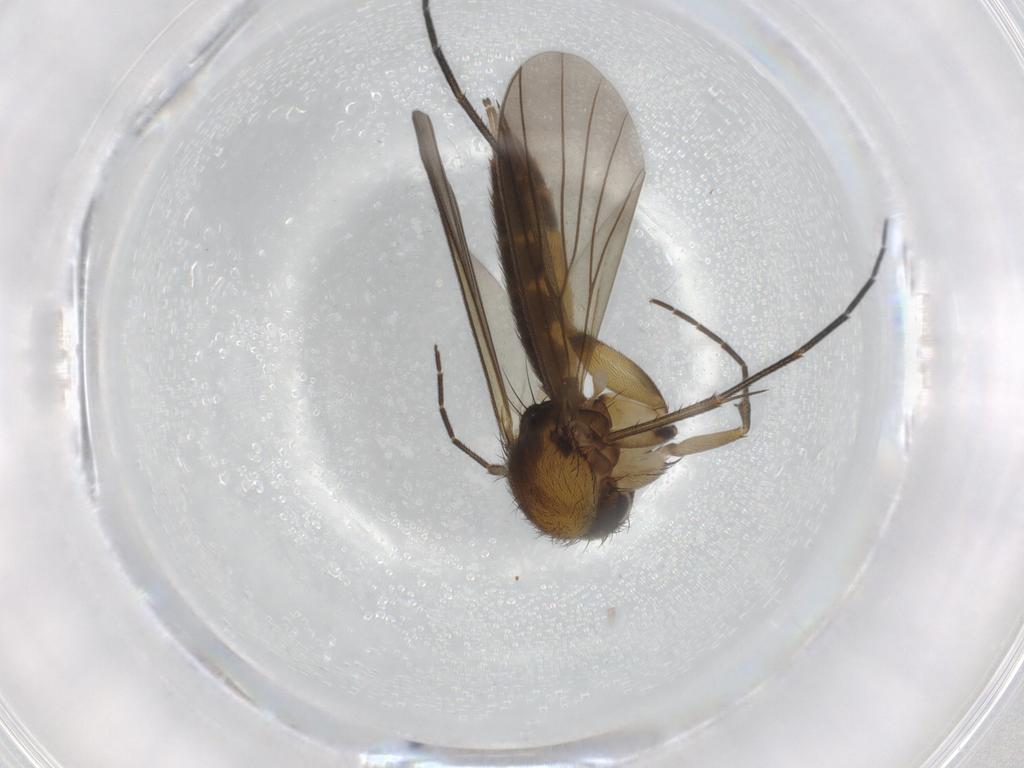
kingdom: Animalia
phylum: Arthropoda
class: Insecta
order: Diptera
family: Mycetophilidae
